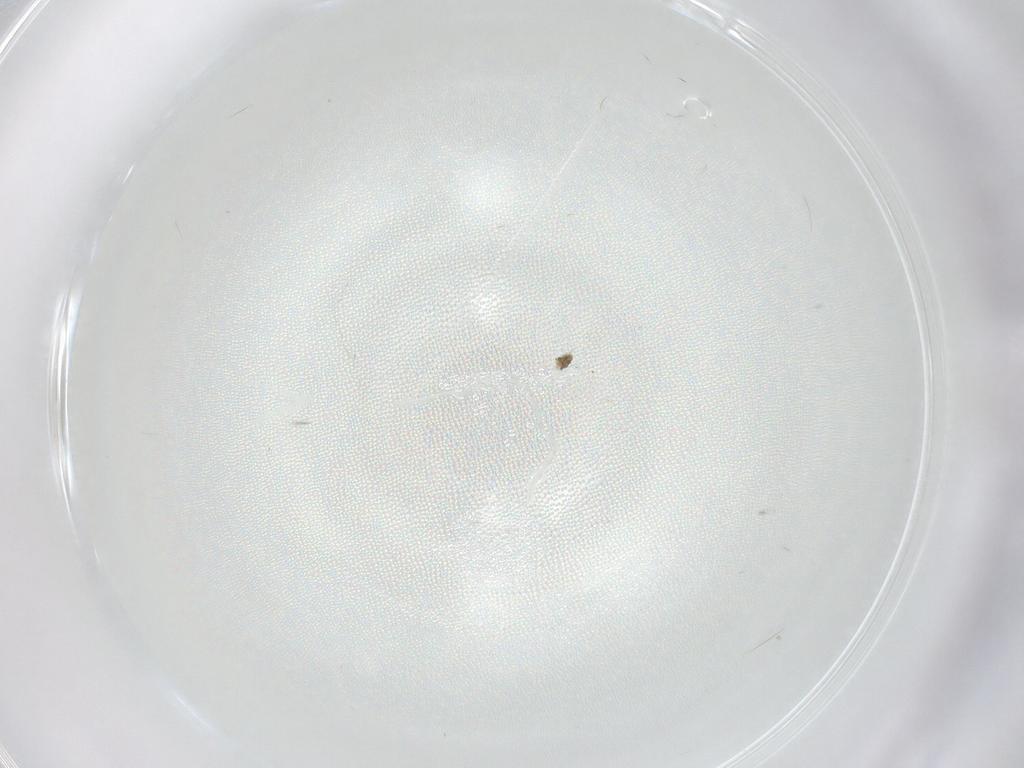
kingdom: Animalia
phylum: Arthropoda
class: Insecta
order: Diptera
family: Cecidomyiidae
